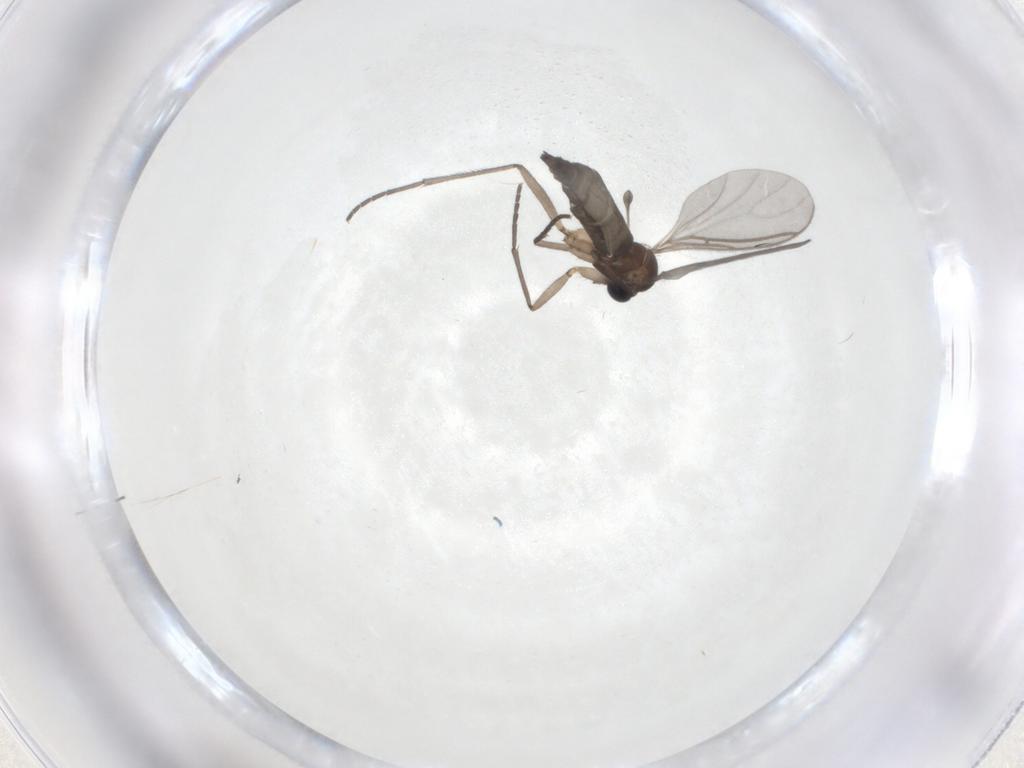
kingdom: Animalia
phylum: Arthropoda
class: Insecta
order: Diptera
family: Sciaridae
